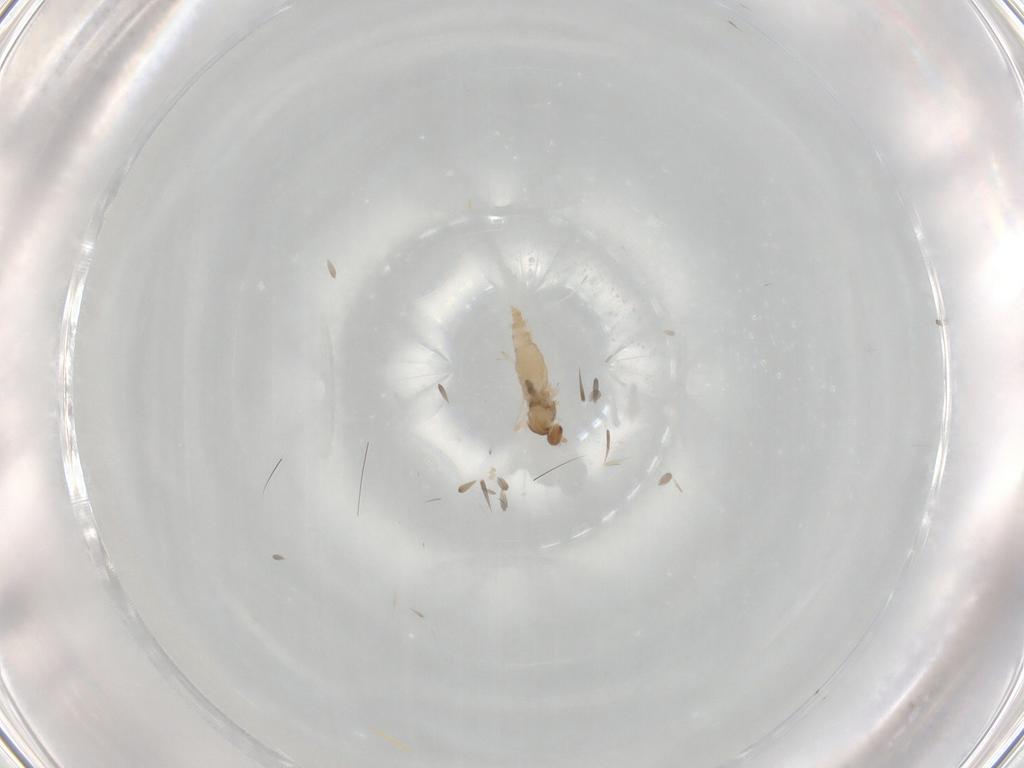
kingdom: Animalia
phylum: Arthropoda
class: Insecta
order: Diptera
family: Cecidomyiidae
